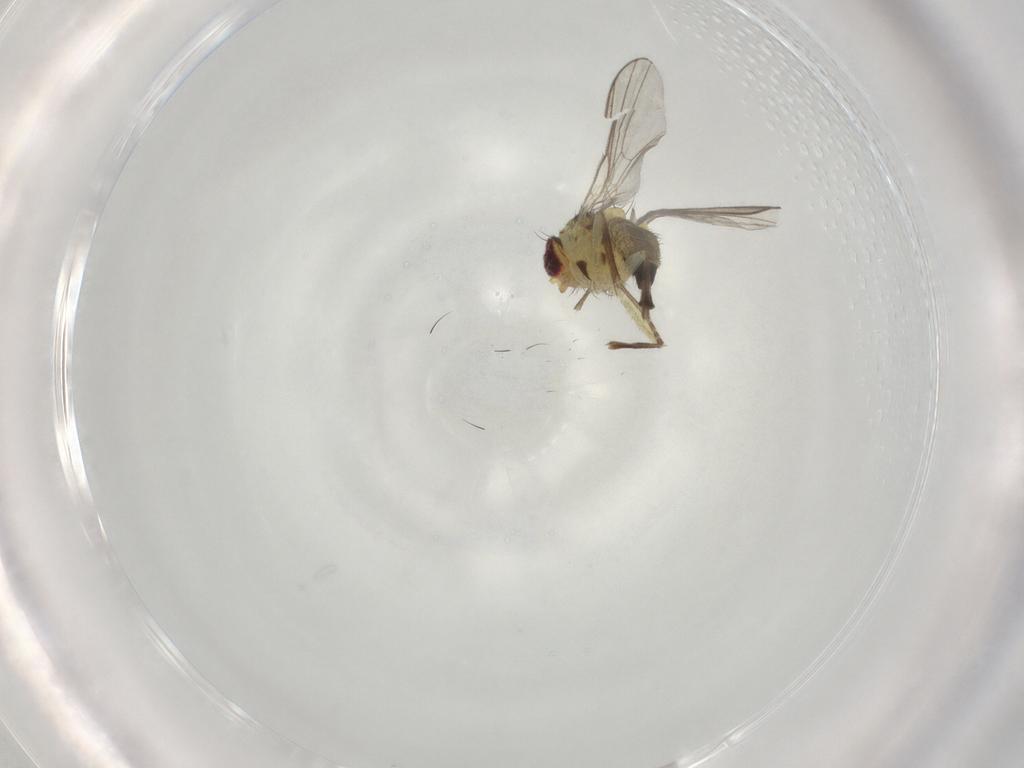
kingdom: Animalia
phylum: Arthropoda
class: Insecta
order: Diptera
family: Agromyzidae
